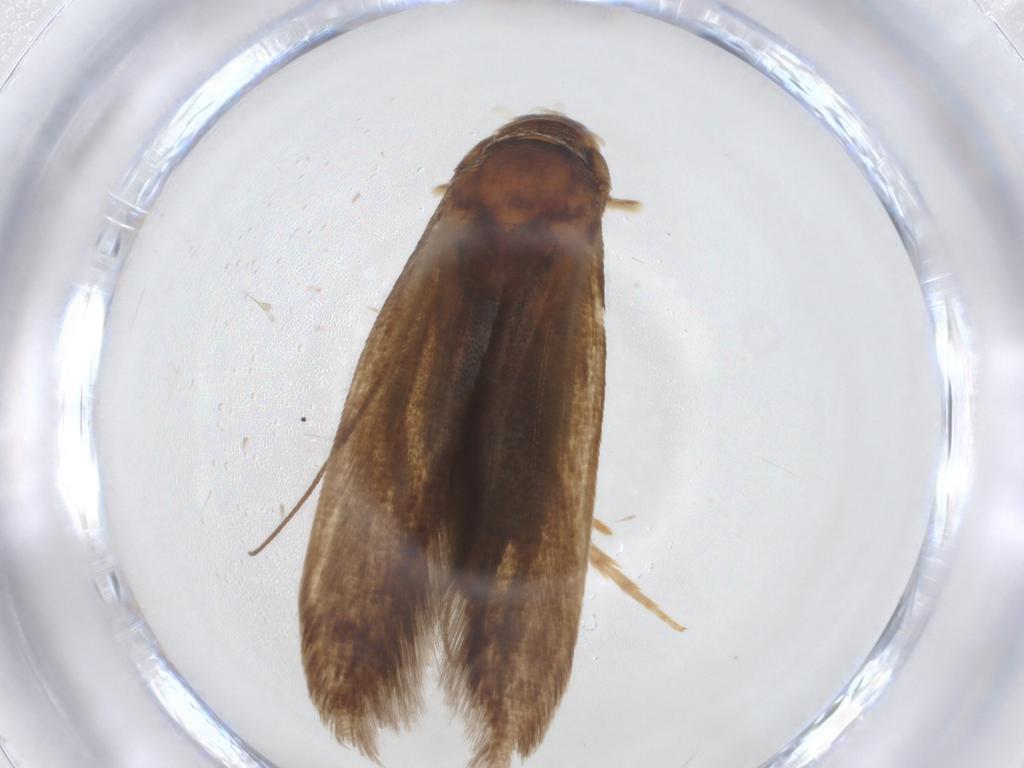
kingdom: Animalia
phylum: Arthropoda
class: Insecta
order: Lepidoptera
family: Tineidae
